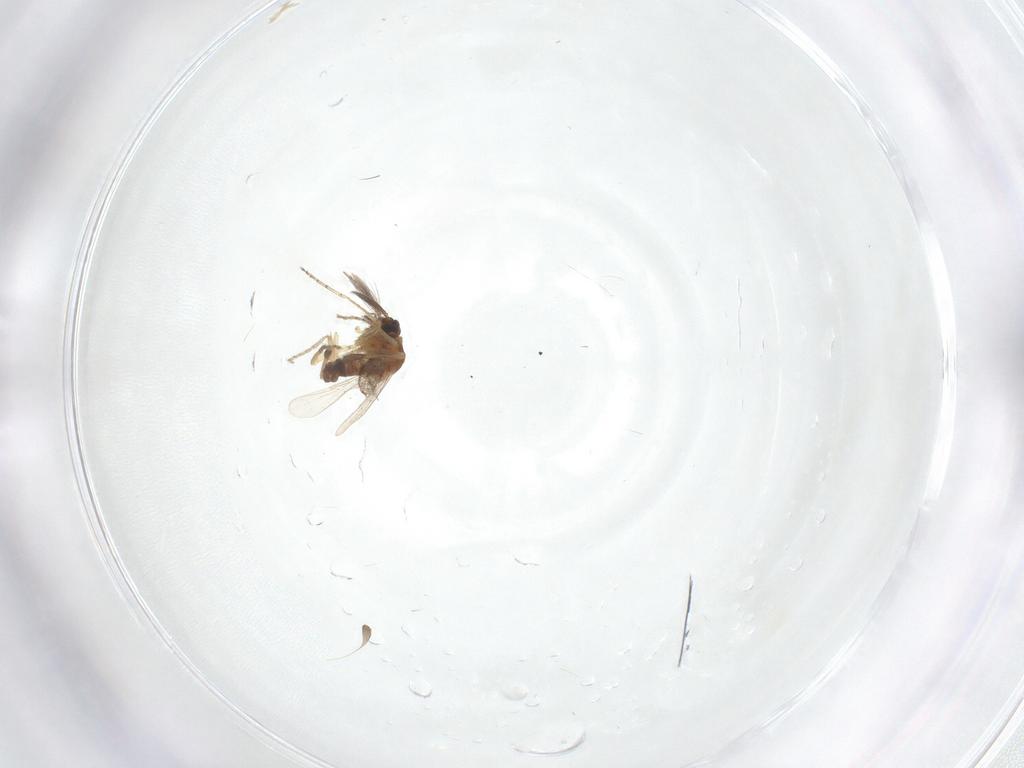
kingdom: Animalia
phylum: Arthropoda
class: Insecta
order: Diptera
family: Ceratopogonidae
